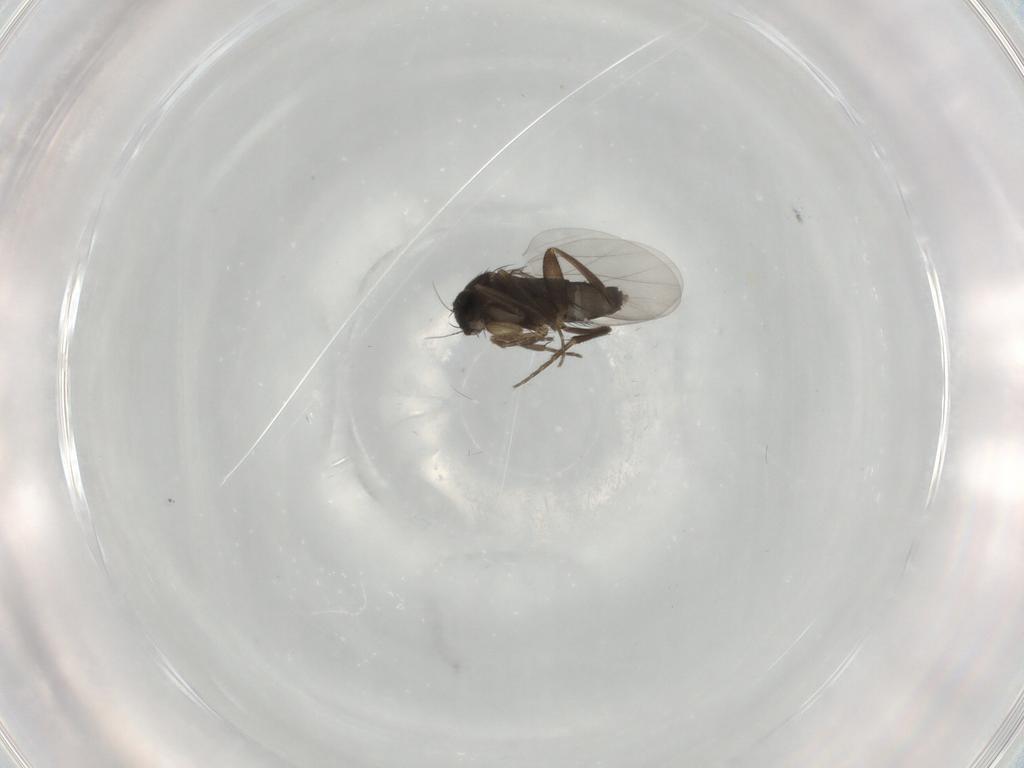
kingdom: Animalia
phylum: Arthropoda
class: Insecta
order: Diptera
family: Phoridae
